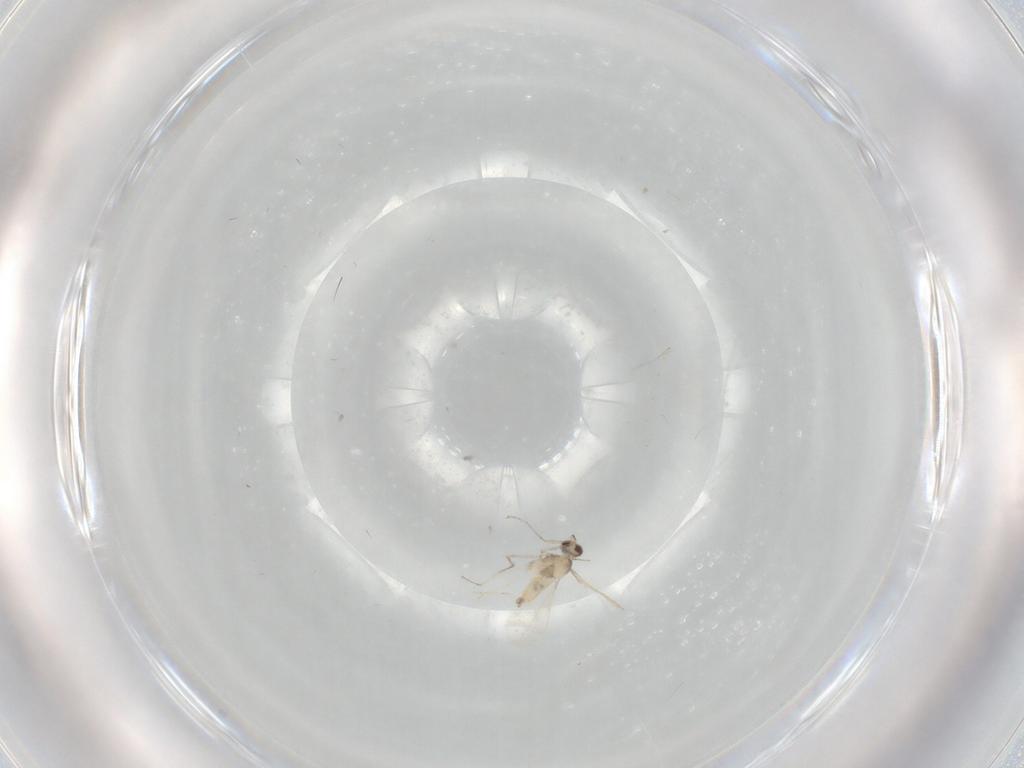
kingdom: Animalia
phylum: Arthropoda
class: Insecta
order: Diptera
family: Cecidomyiidae
